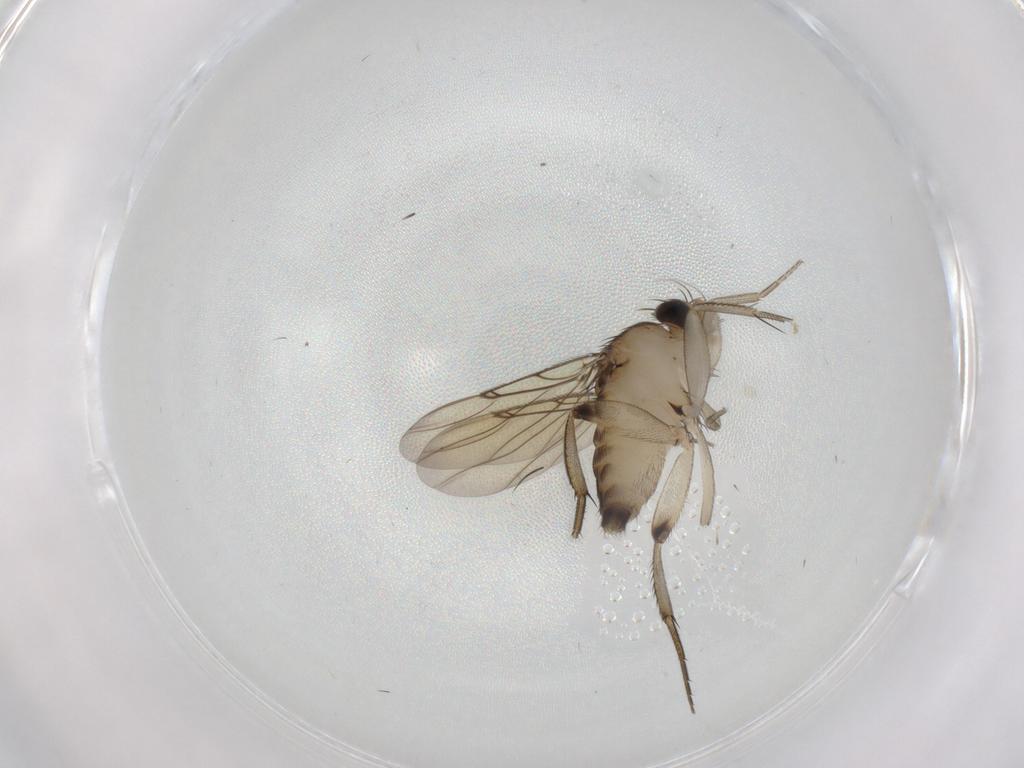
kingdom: Animalia
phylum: Arthropoda
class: Insecta
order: Diptera
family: Phoridae
